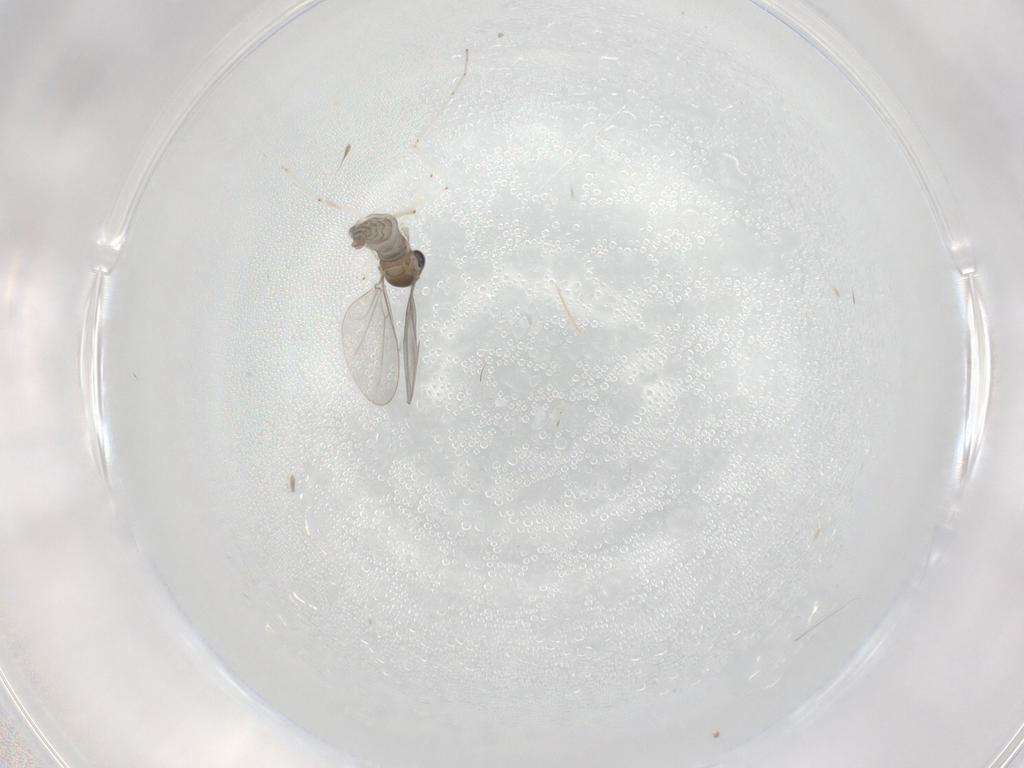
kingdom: Animalia
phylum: Arthropoda
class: Insecta
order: Diptera
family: Cecidomyiidae
